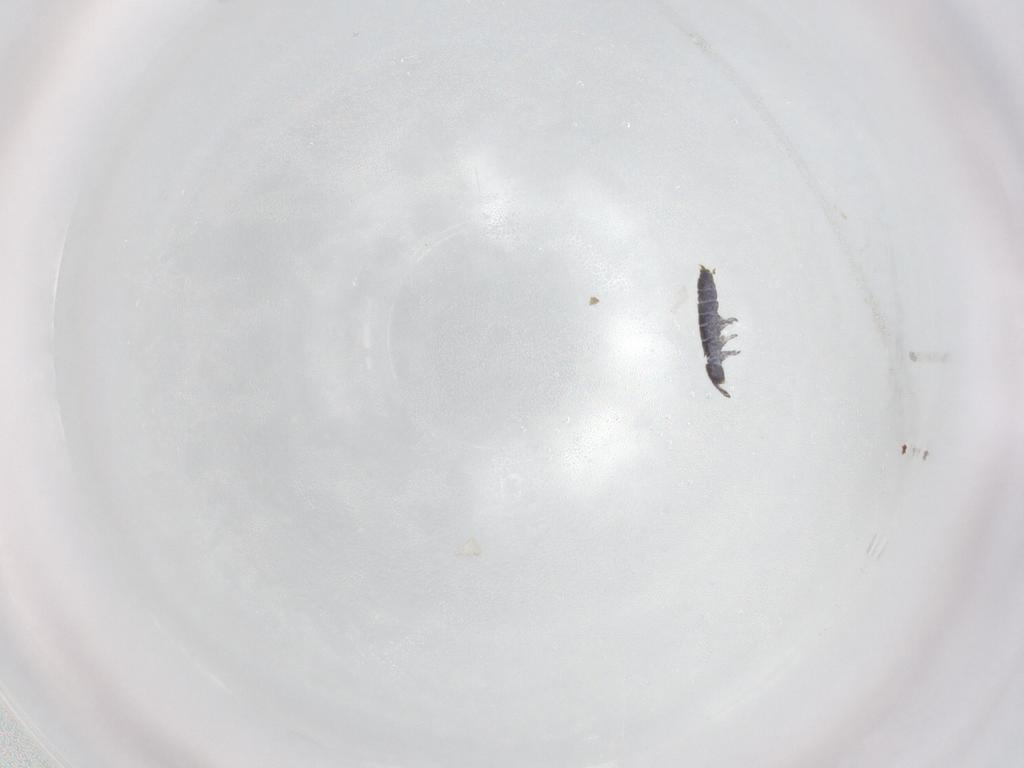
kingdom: Animalia
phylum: Arthropoda
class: Collembola
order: Entomobryomorpha
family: Isotomidae
